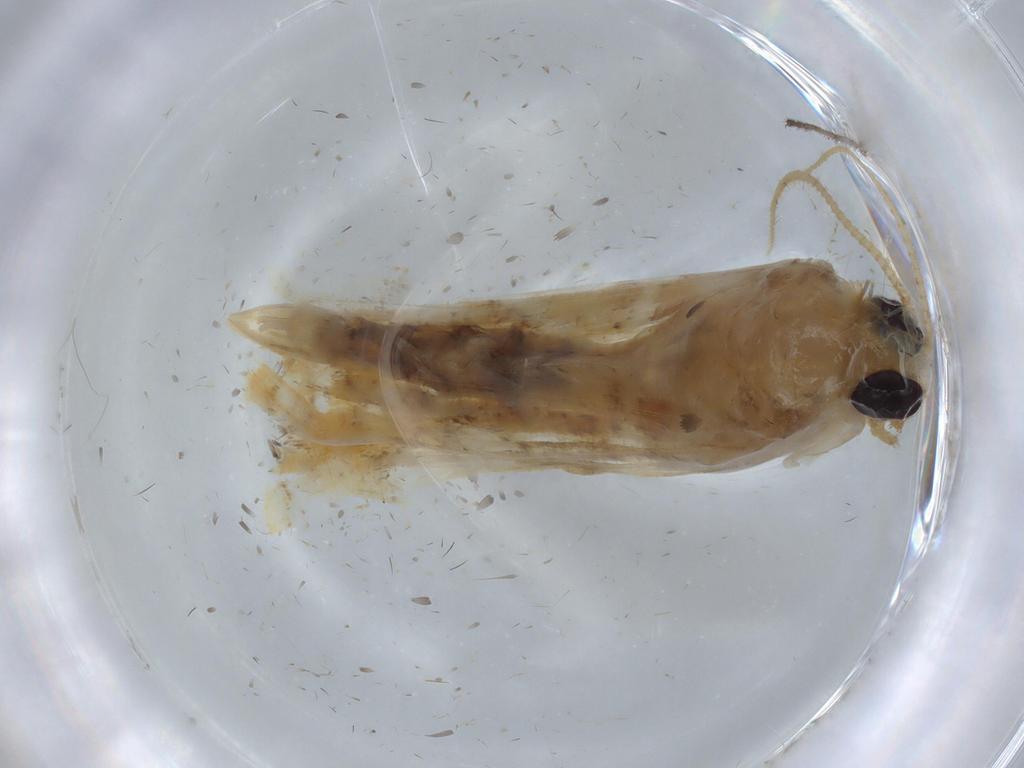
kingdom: Animalia
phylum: Arthropoda
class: Insecta
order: Lepidoptera
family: Crambidae
